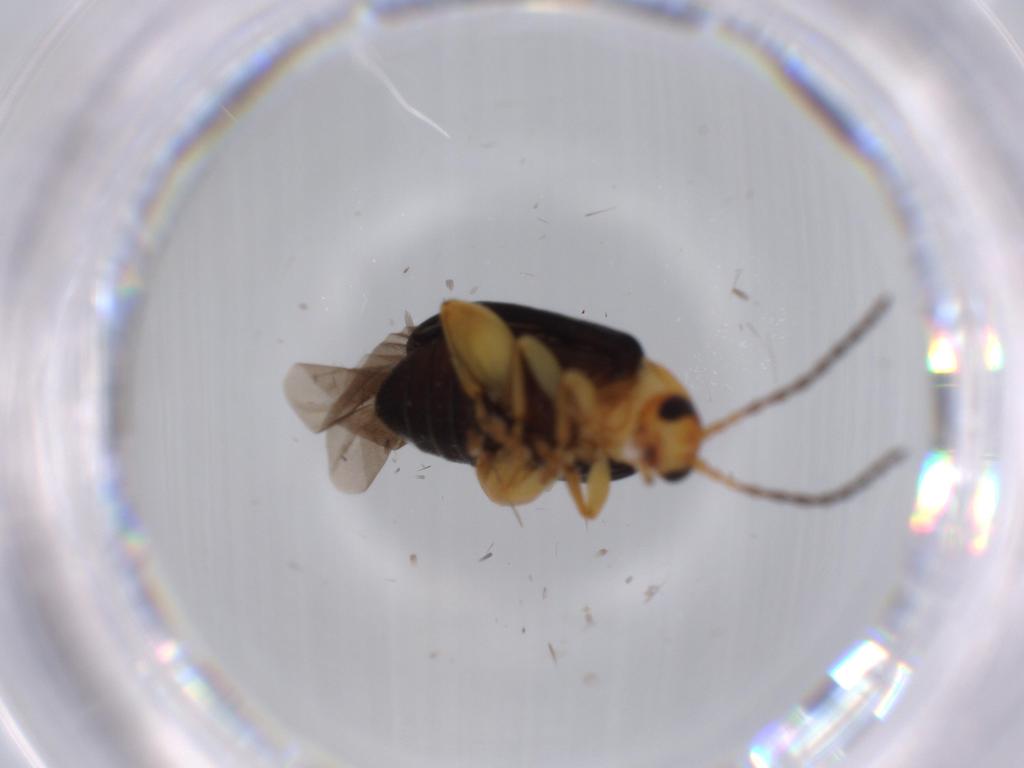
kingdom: Animalia
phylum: Arthropoda
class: Insecta
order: Coleoptera
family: Chrysomelidae
